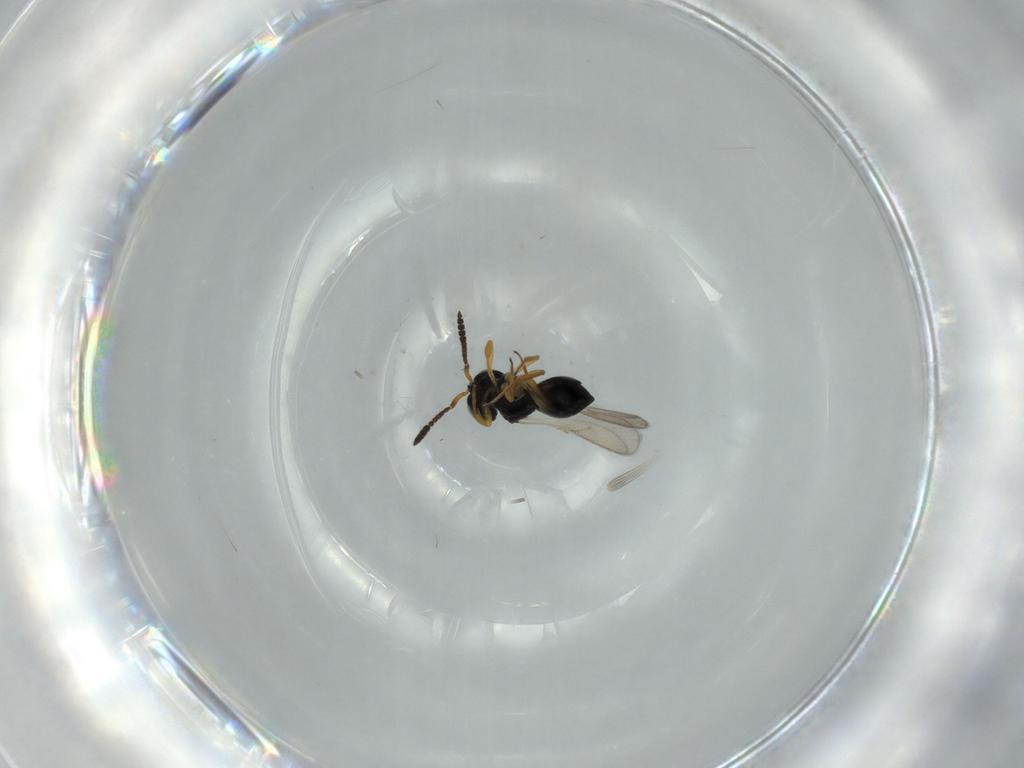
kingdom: Animalia
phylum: Arthropoda
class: Insecta
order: Hymenoptera
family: Scelionidae
